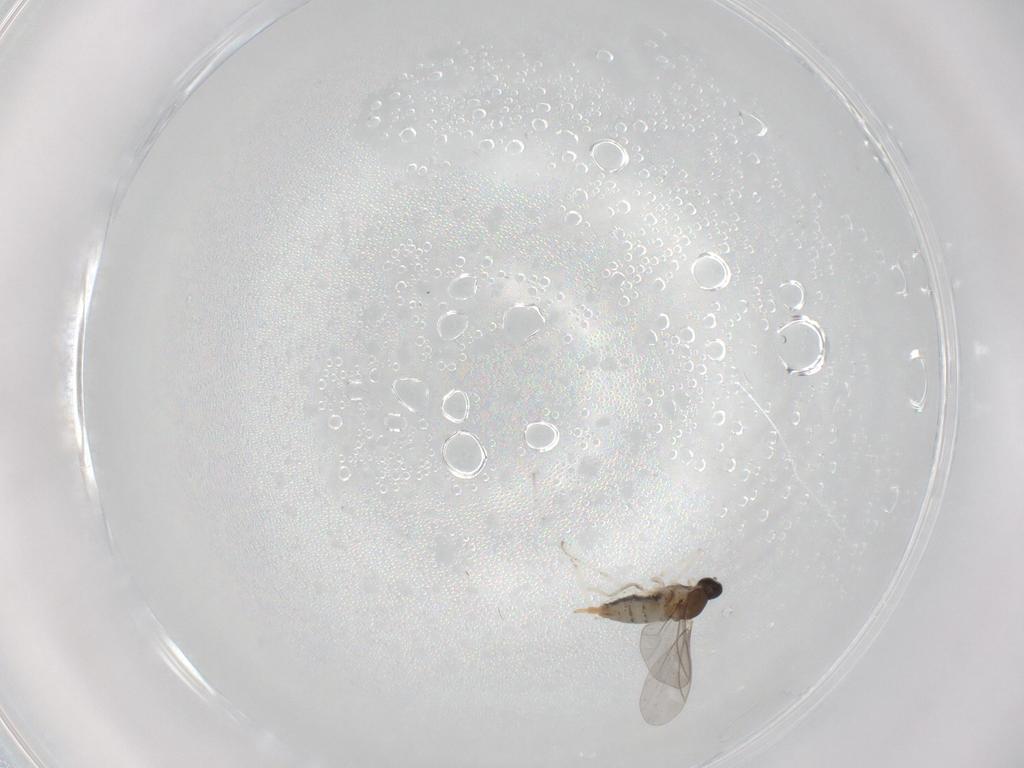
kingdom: Animalia
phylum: Arthropoda
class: Insecta
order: Diptera
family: Cecidomyiidae
